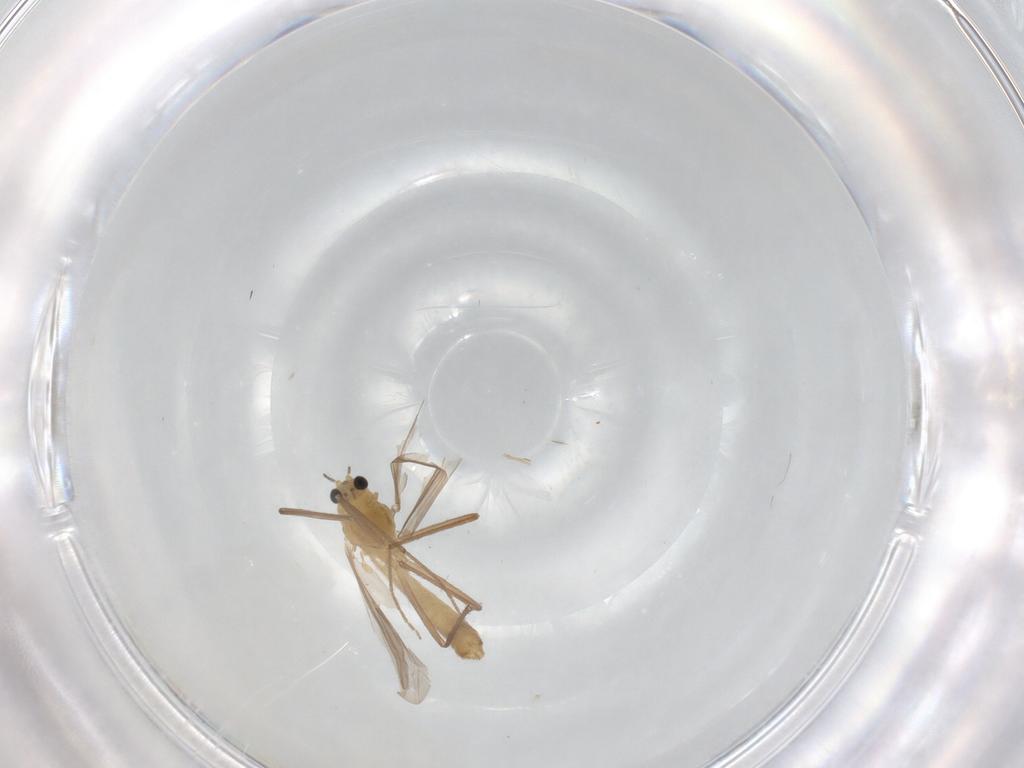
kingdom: Animalia
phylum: Arthropoda
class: Insecta
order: Diptera
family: Chironomidae
